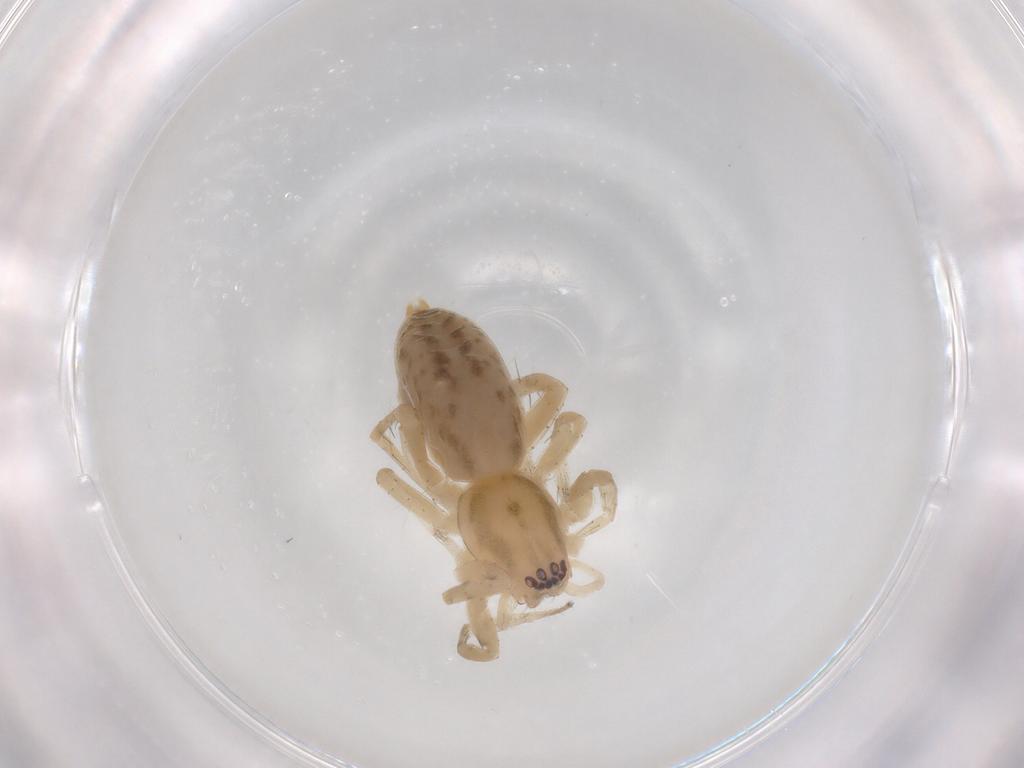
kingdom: Animalia
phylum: Arthropoda
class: Arachnida
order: Araneae
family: Anyphaenidae
